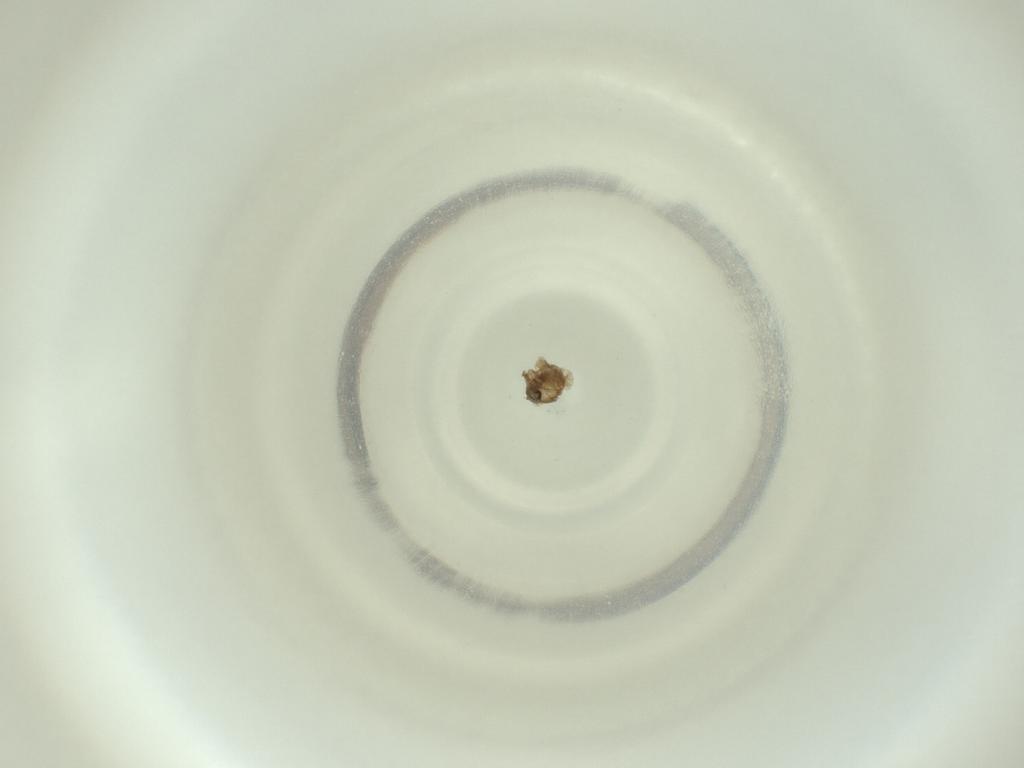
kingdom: Animalia
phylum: Arthropoda
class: Insecta
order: Diptera
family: Cecidomyiidae
